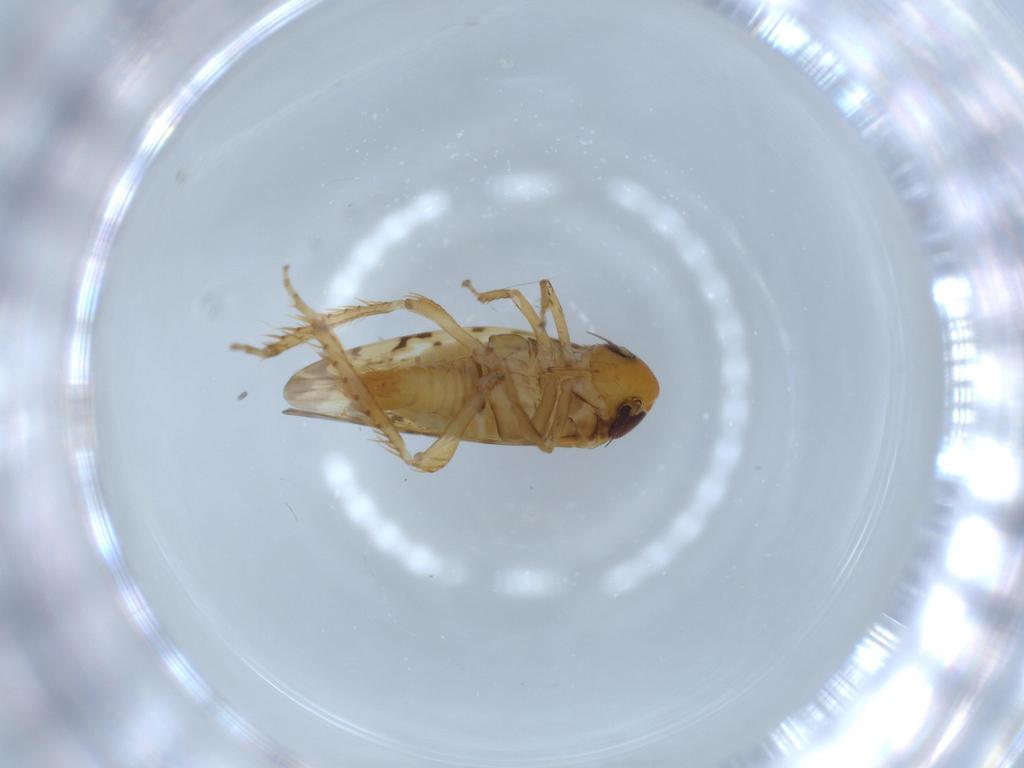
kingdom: Animalia
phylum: Arthropoda
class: Insecta
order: Hemiptera
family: Cicadellidae
